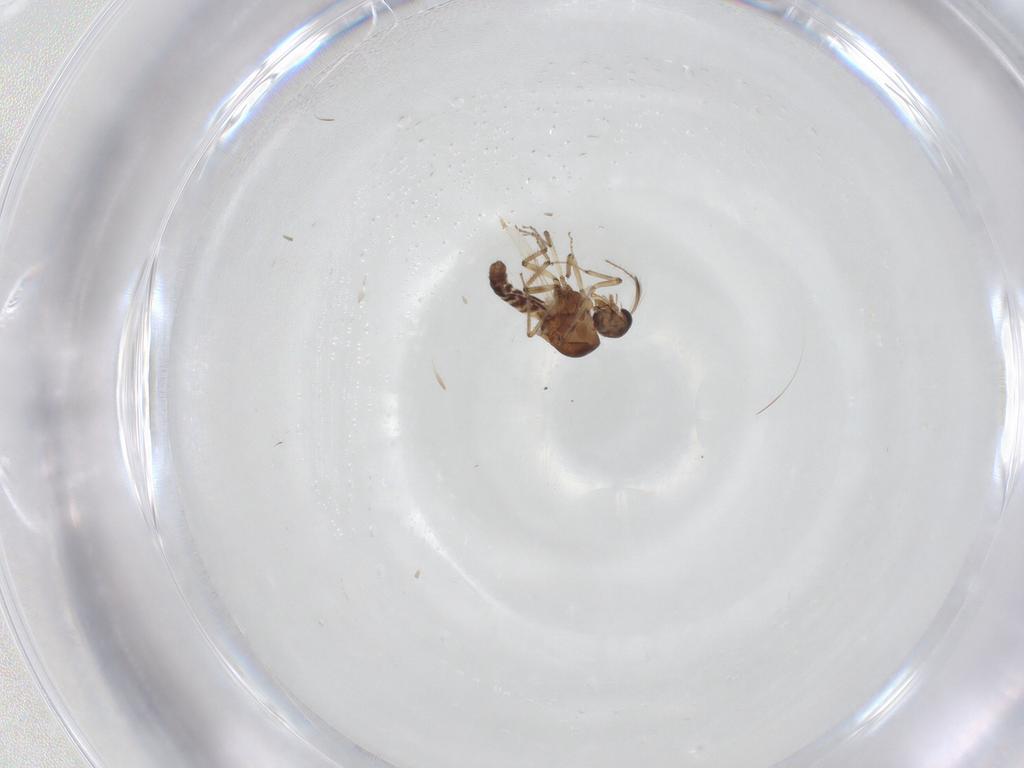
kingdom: Animalia
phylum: Arthropoda
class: Insecta
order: Diptera
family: Ceratopogonidae
